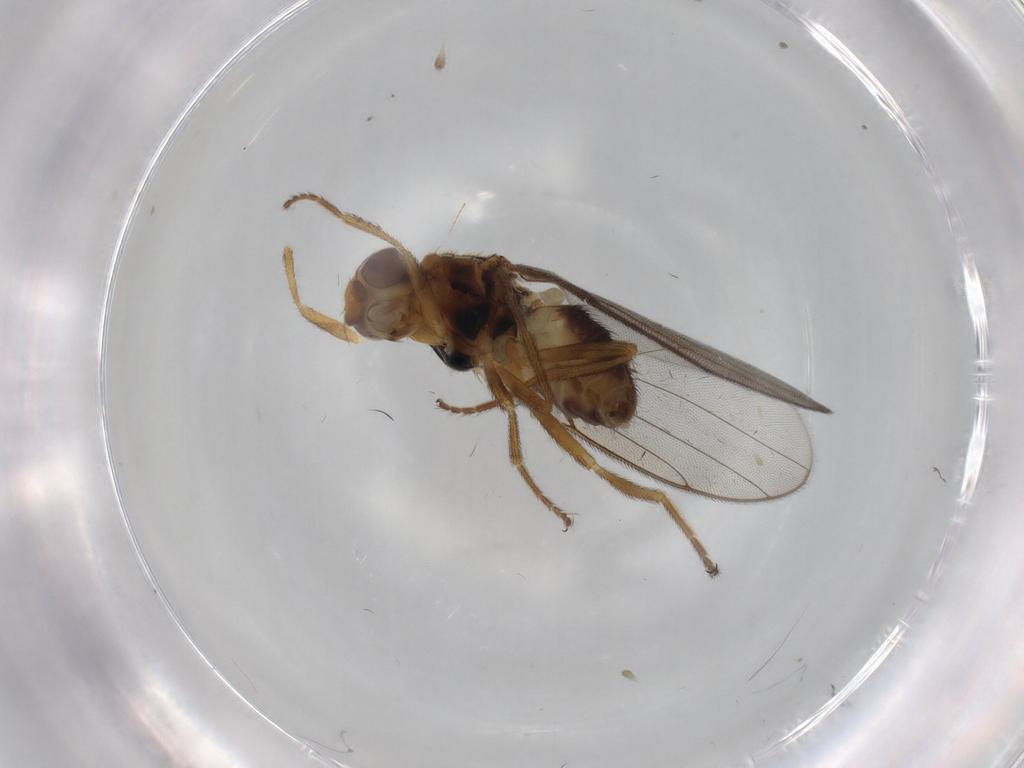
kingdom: Animalia
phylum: Arthropoda
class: Insecta
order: Diptera
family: Chloropidae
